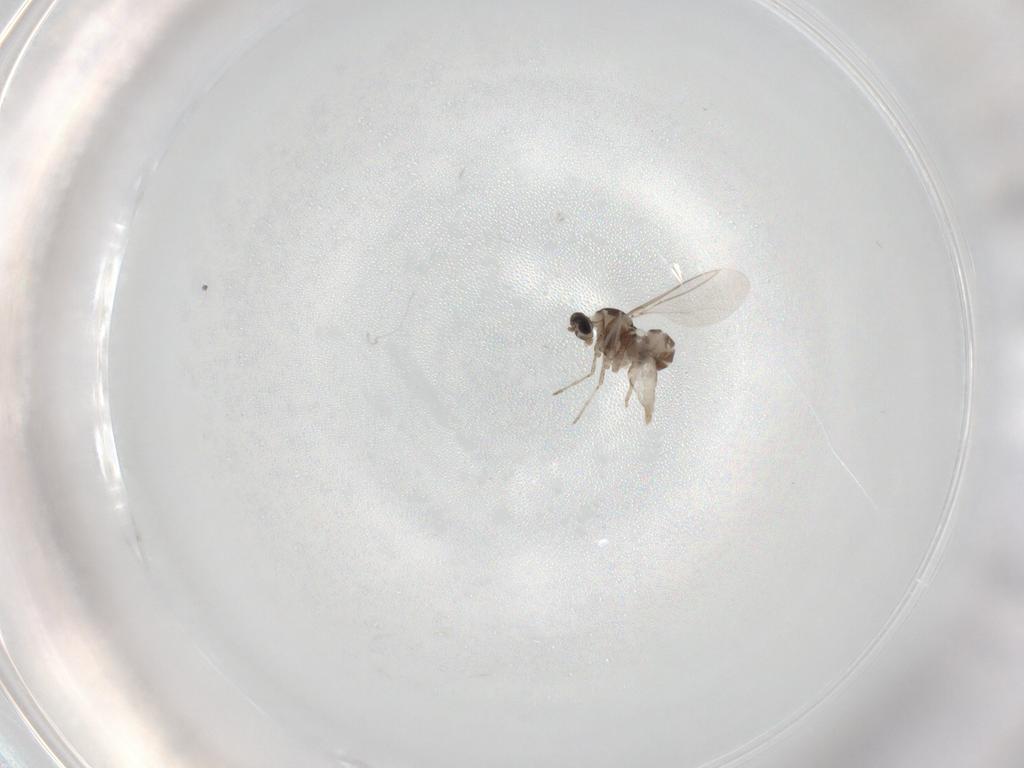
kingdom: Animalia
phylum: Arthropoda
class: Insecta
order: Diptera
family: Cecidomyiidae
